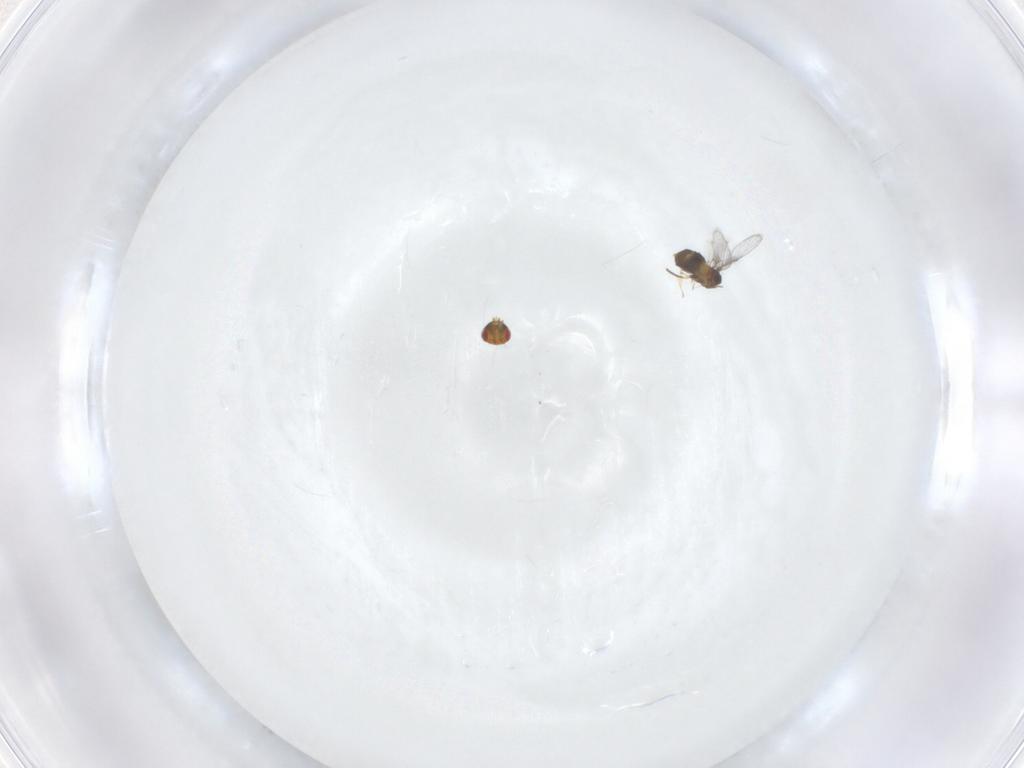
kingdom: Animalia
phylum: Arthropoda
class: Insecta
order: Hymenoptera
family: Trichogrammatidae
